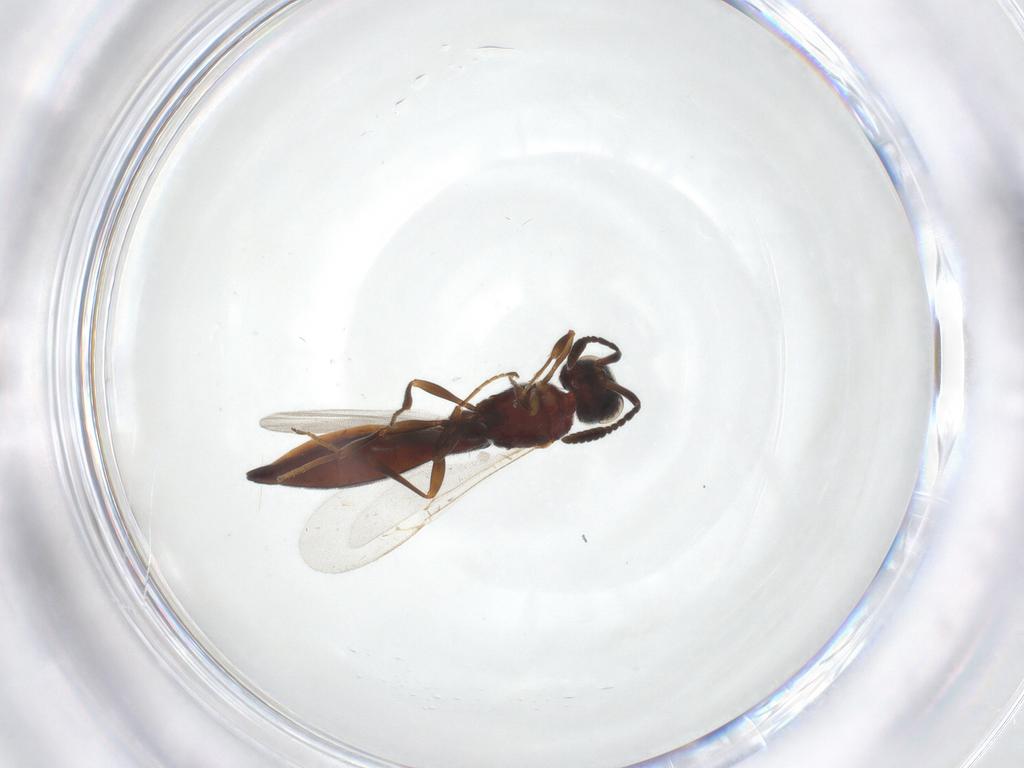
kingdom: Animalia
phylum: Arthropoda
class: Insecta
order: Hymenoptera
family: Scelionidae
